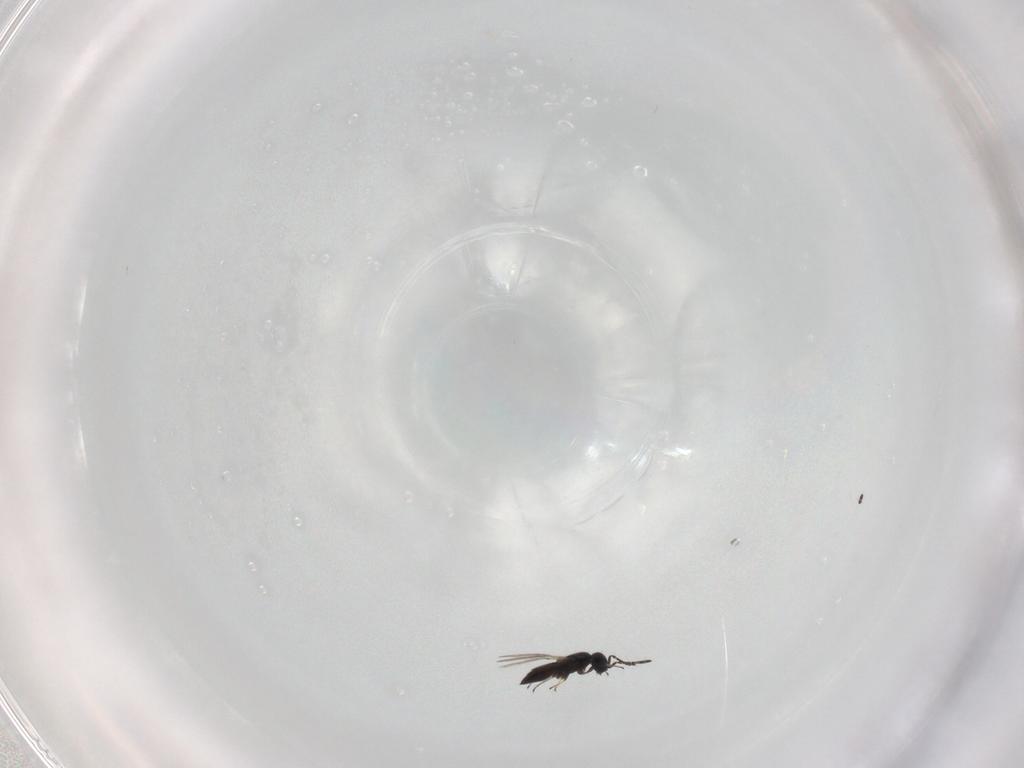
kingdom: Animalia
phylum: Arthropoda
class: Insecta
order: Hymenoptera
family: Scelionidae
